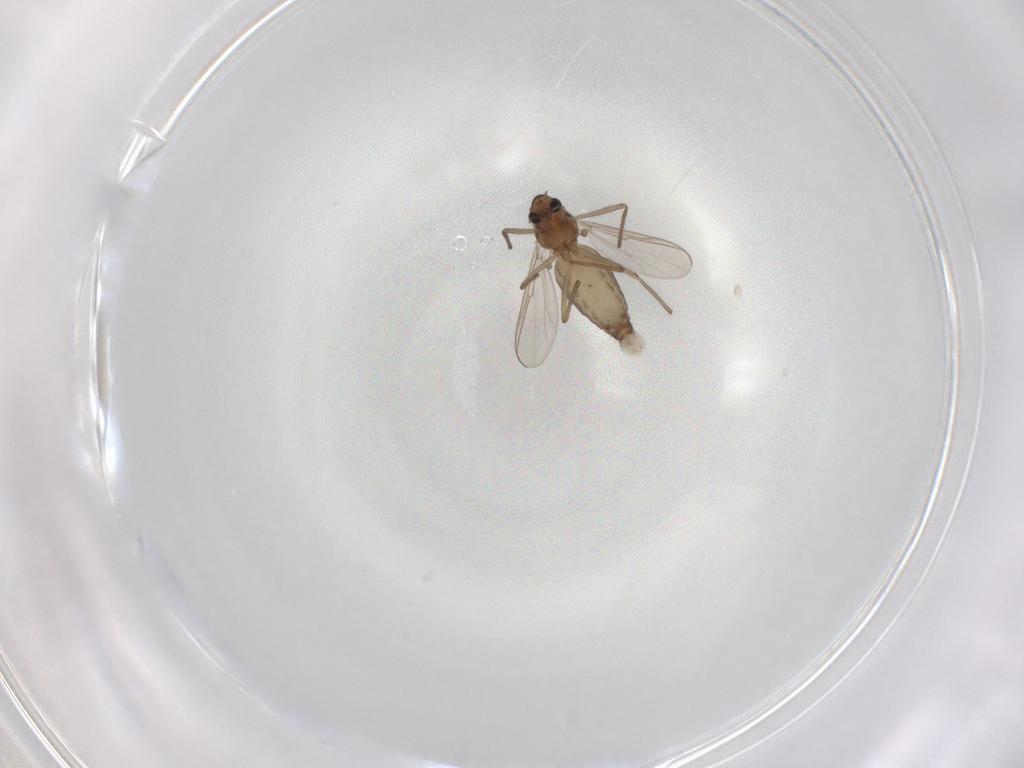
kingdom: Animalia
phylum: Arthropoda
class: Insecta
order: Diptera
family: Chironomidae
